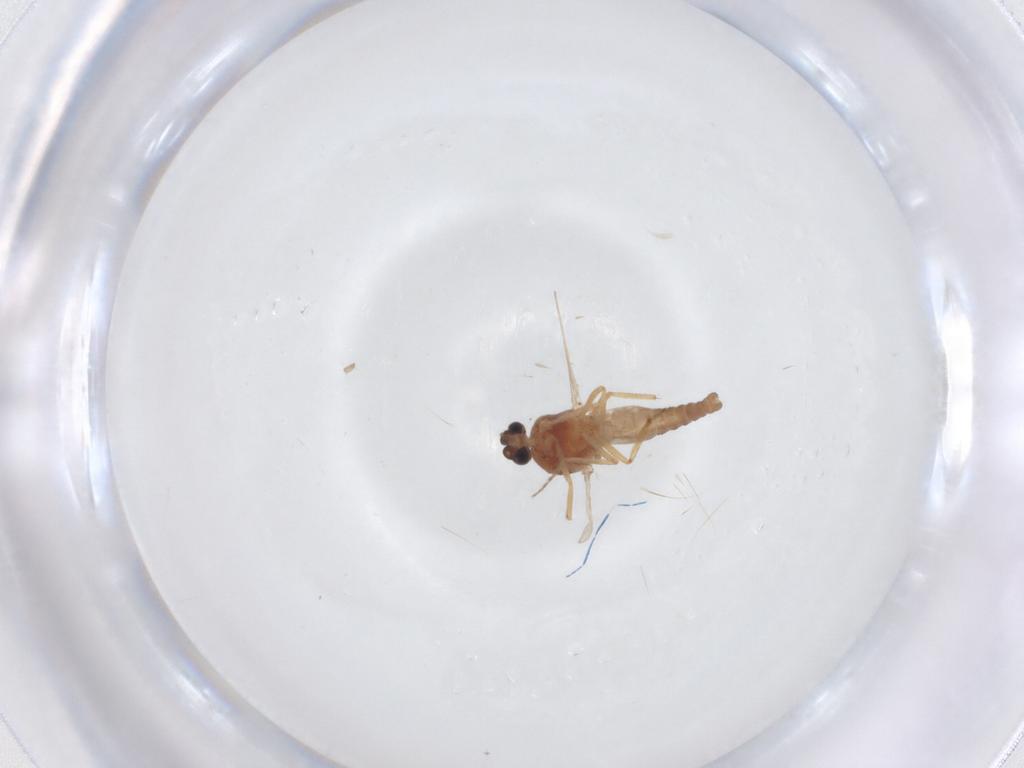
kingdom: Animalia
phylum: Arthropoda
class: Insecta
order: Diptera
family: Ceratopogonidae
